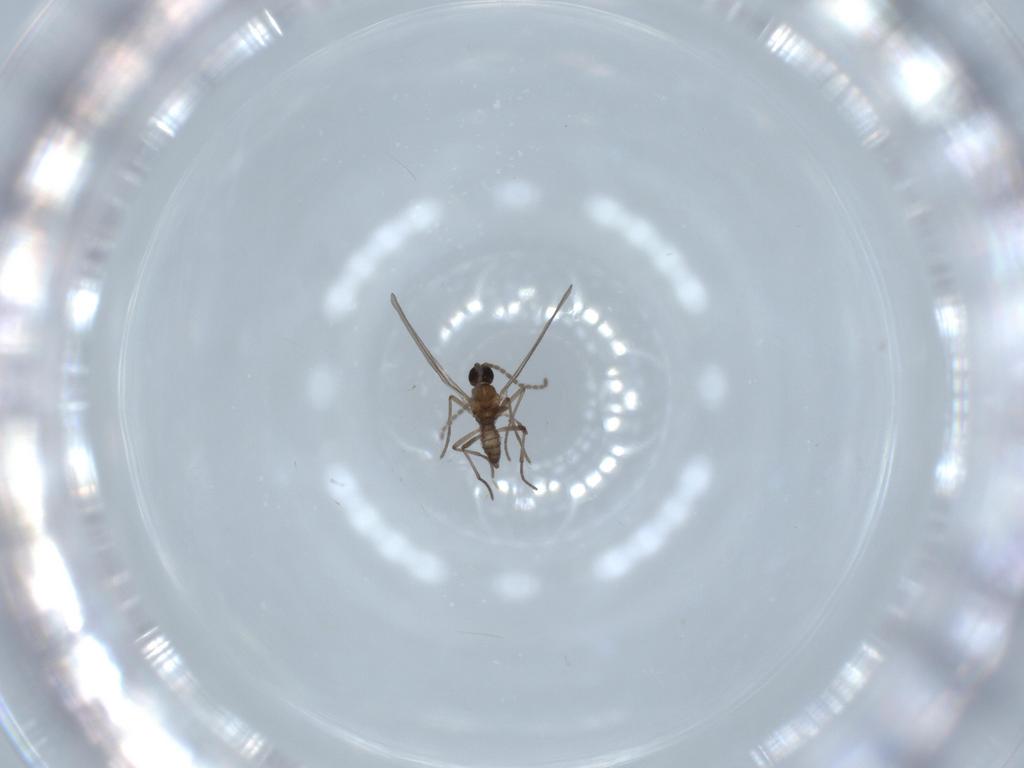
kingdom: Animalia
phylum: Arthropoda
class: Insecta
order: Diptera
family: Sciaridae
